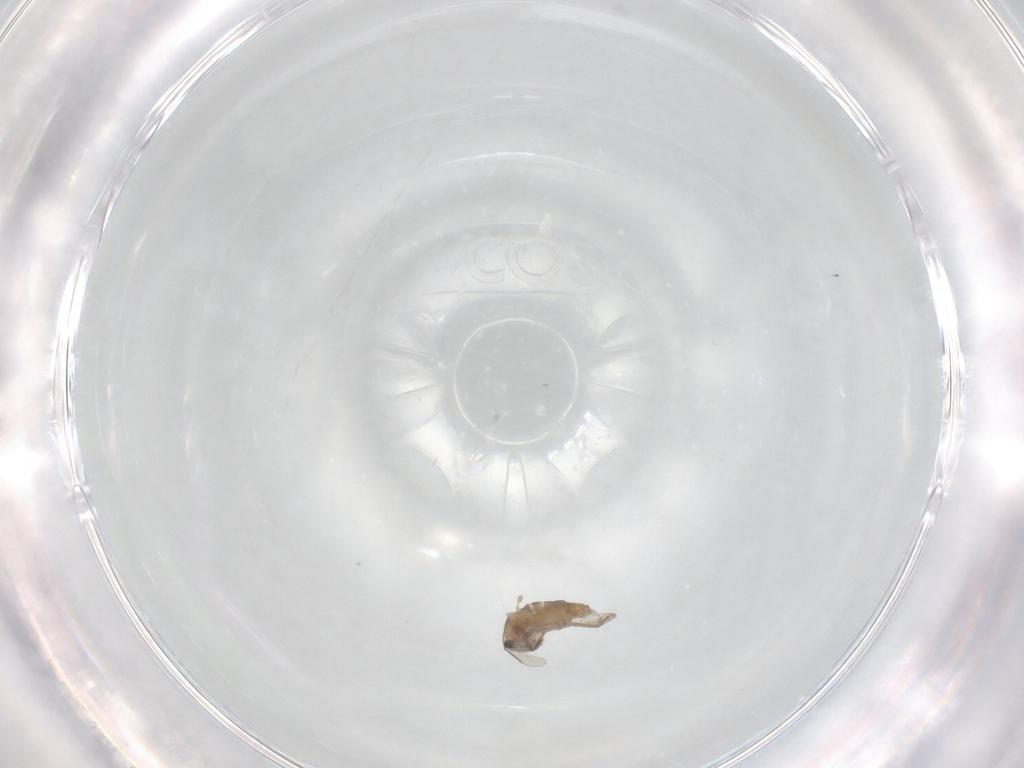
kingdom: Animalia
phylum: Arthropoda
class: Insecta
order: Diptera
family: Chironomidae
